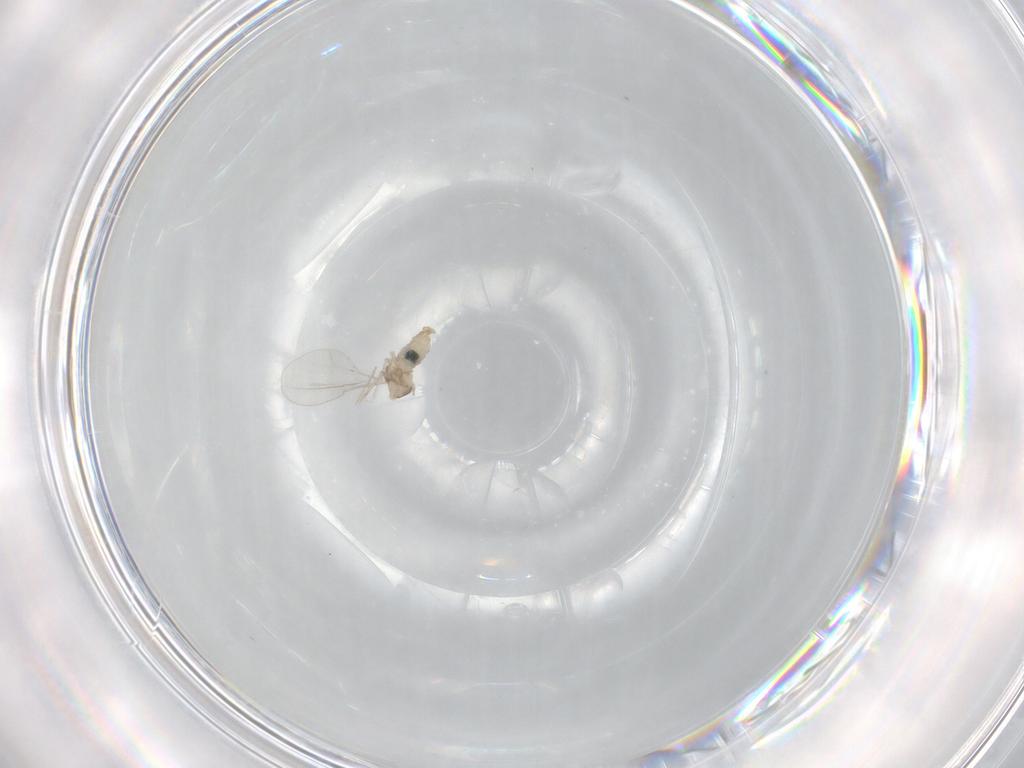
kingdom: Animalia
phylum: Arthropoda
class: Insecta
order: Diptera
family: Cecidomyiidae
